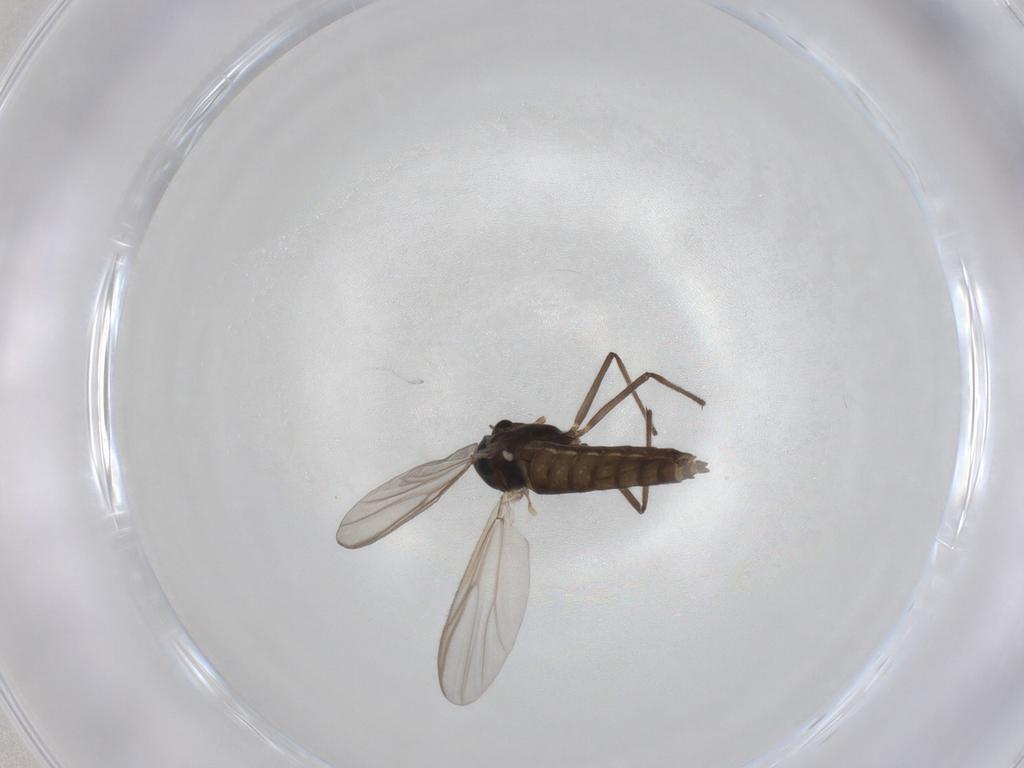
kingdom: Animalia
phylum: Arthropoda
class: Insecta
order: Diptera
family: Chironomidae
